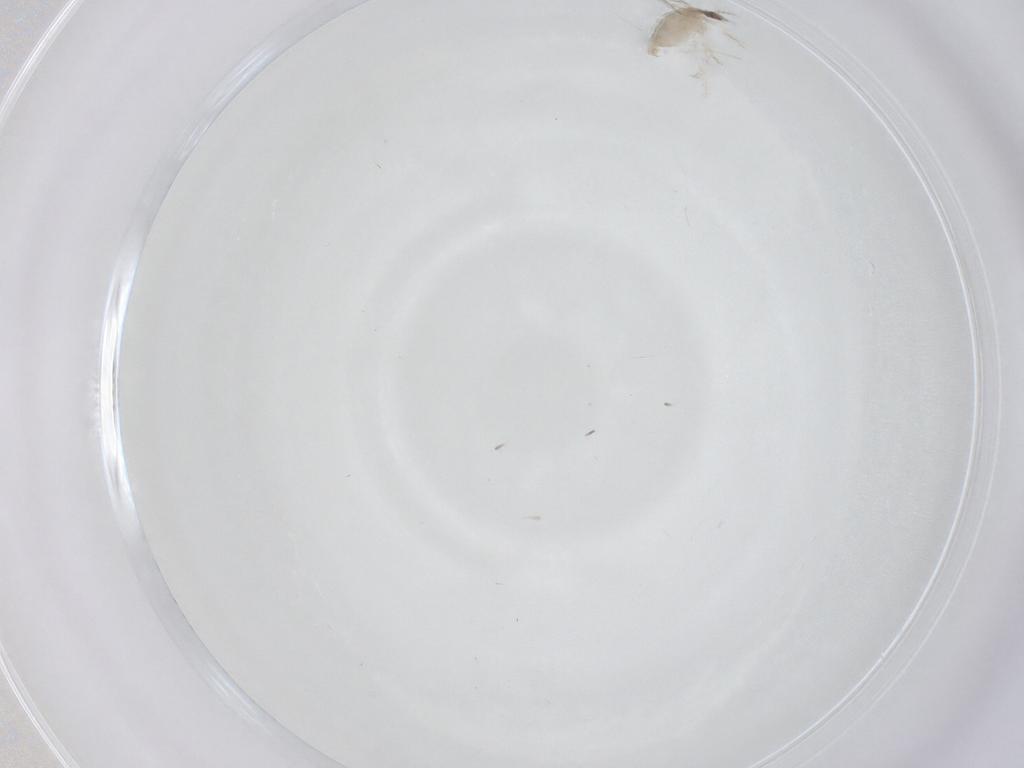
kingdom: Animalia
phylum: Arthropoda
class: Insecta
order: Diptera
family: Cecidomyiidae
